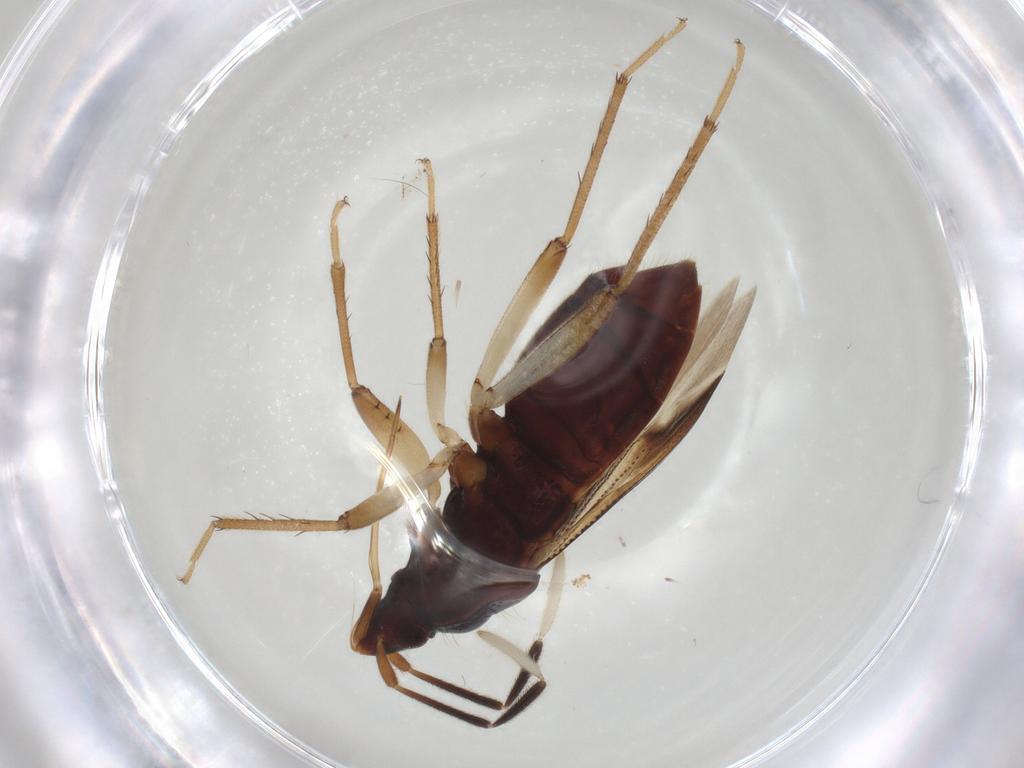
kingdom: Animalia
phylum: Arthropoda
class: Insecta
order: Hemiptera
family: Rhyparochromidae
